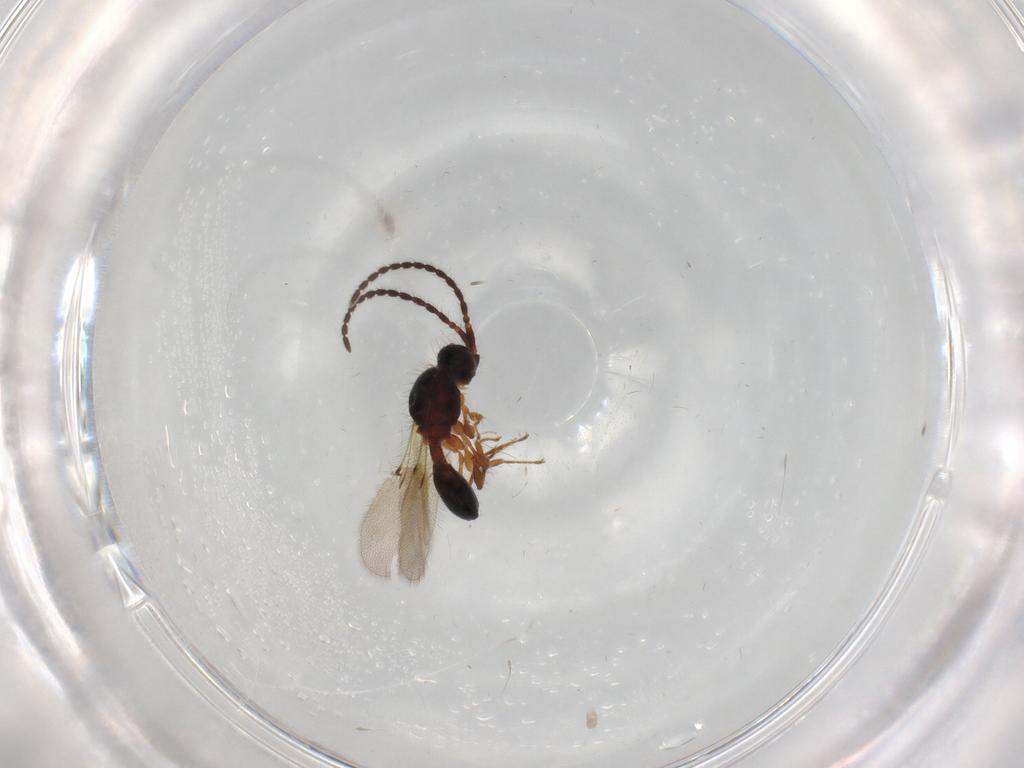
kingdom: Animalia
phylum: Arthropoda
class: Insecta
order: Hymenoptera
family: Diapriidae
